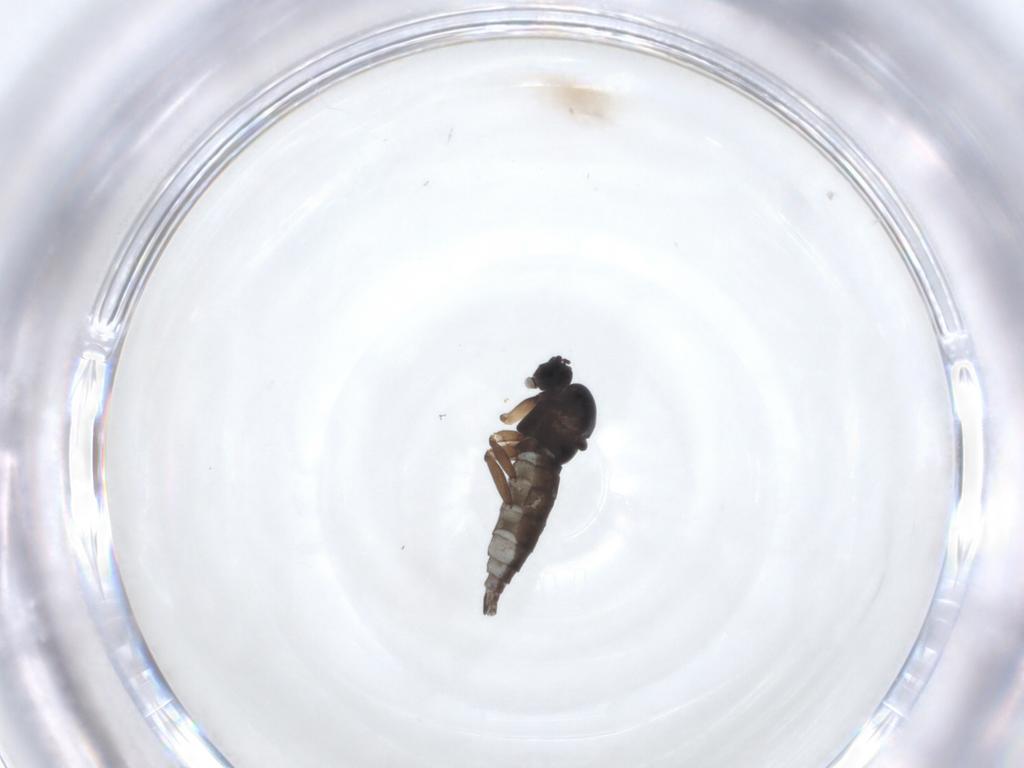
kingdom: Animalia
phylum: Arthropoda
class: Insecta
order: Diptera
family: Sciaridae
